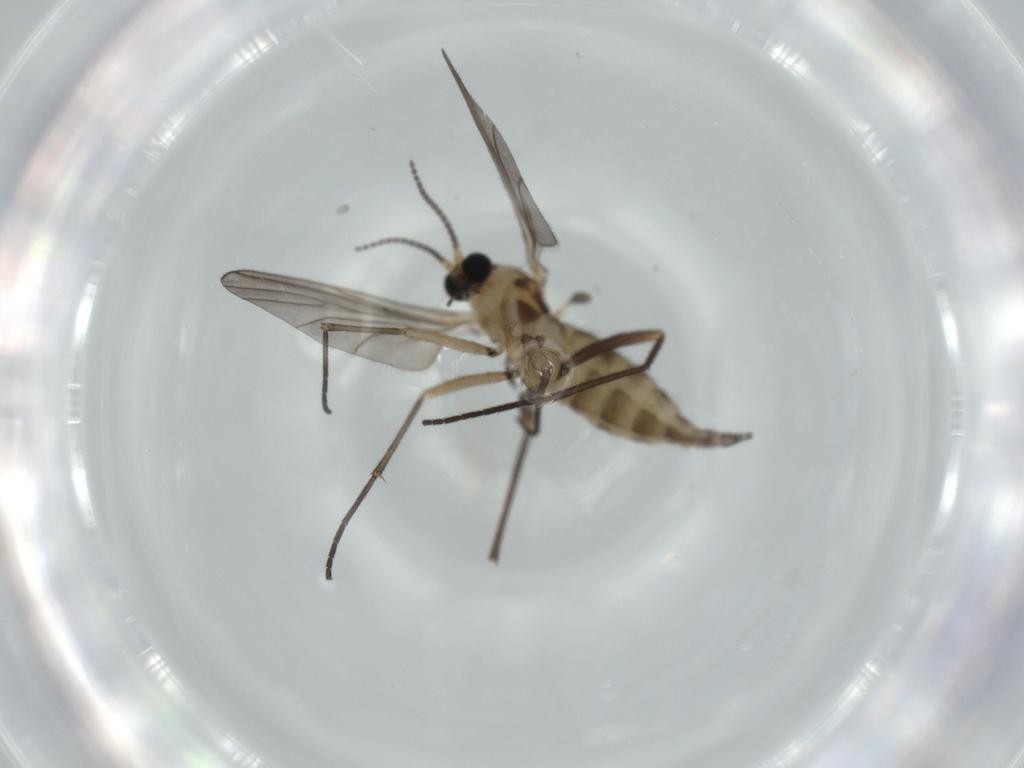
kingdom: Animalia
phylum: Arthropoda
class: Insecta
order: Diptera
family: Sciaridae
